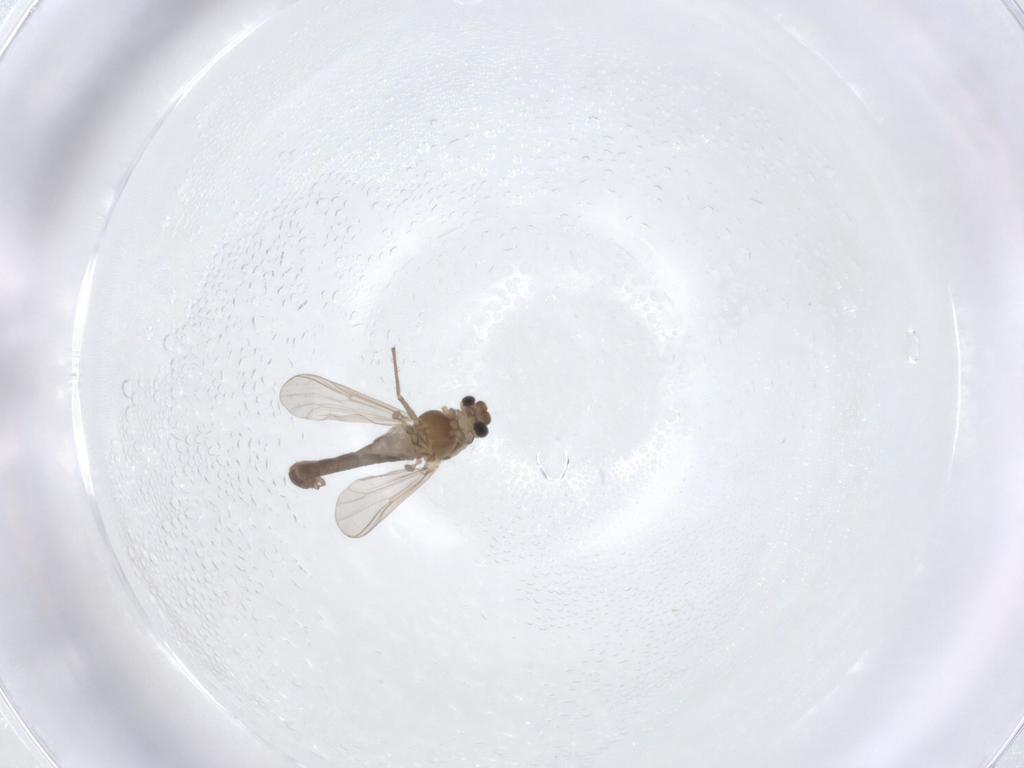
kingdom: Animalia
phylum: Arthropoda
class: Insecta
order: Diptera
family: Chironomidae
